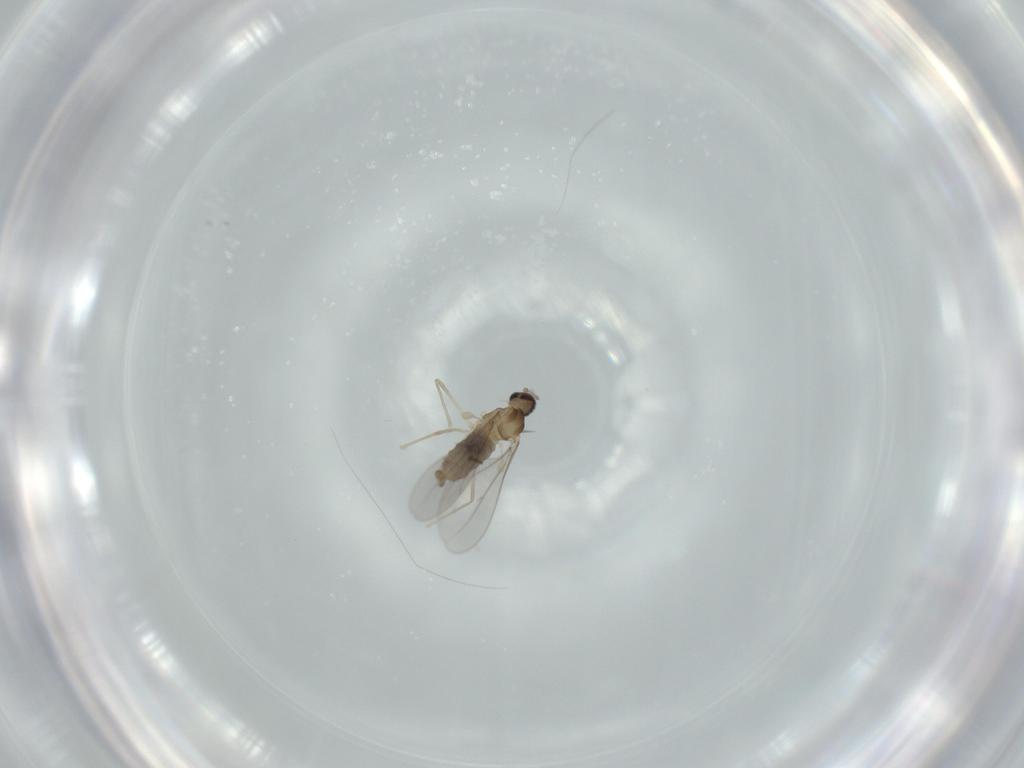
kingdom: Animalia
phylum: Arthropoda
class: Insecta
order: Diptera
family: Cecidomyiidae
